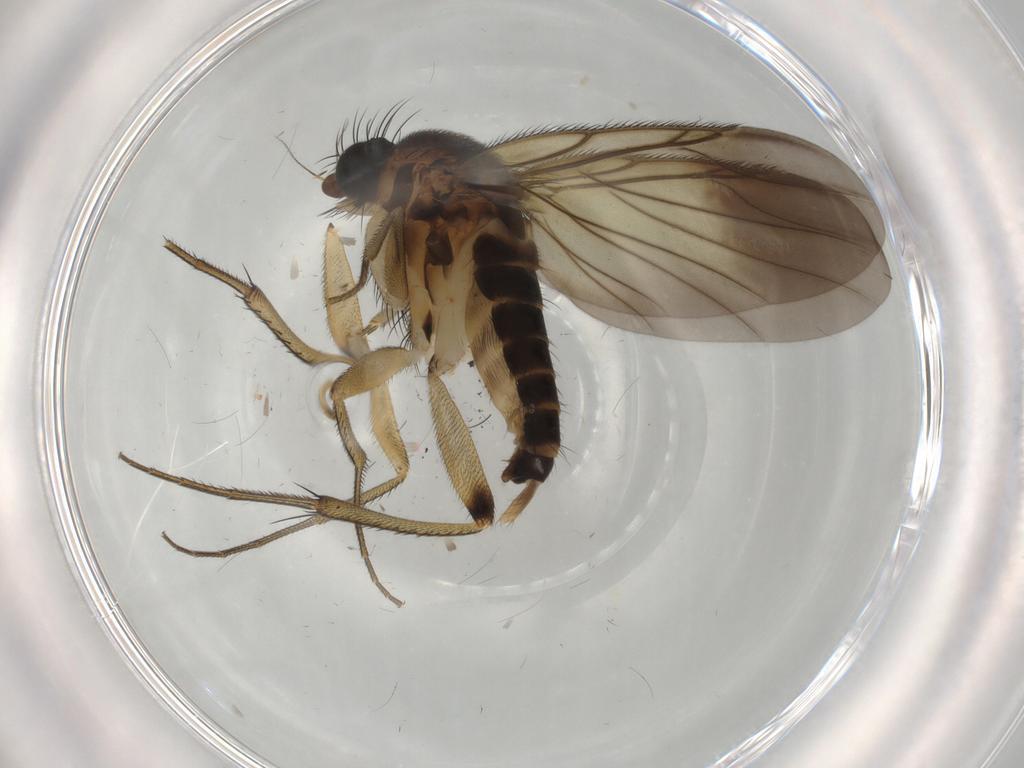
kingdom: Animalia
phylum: Arthropoda
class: Insecta
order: Diptera
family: Phoridae
